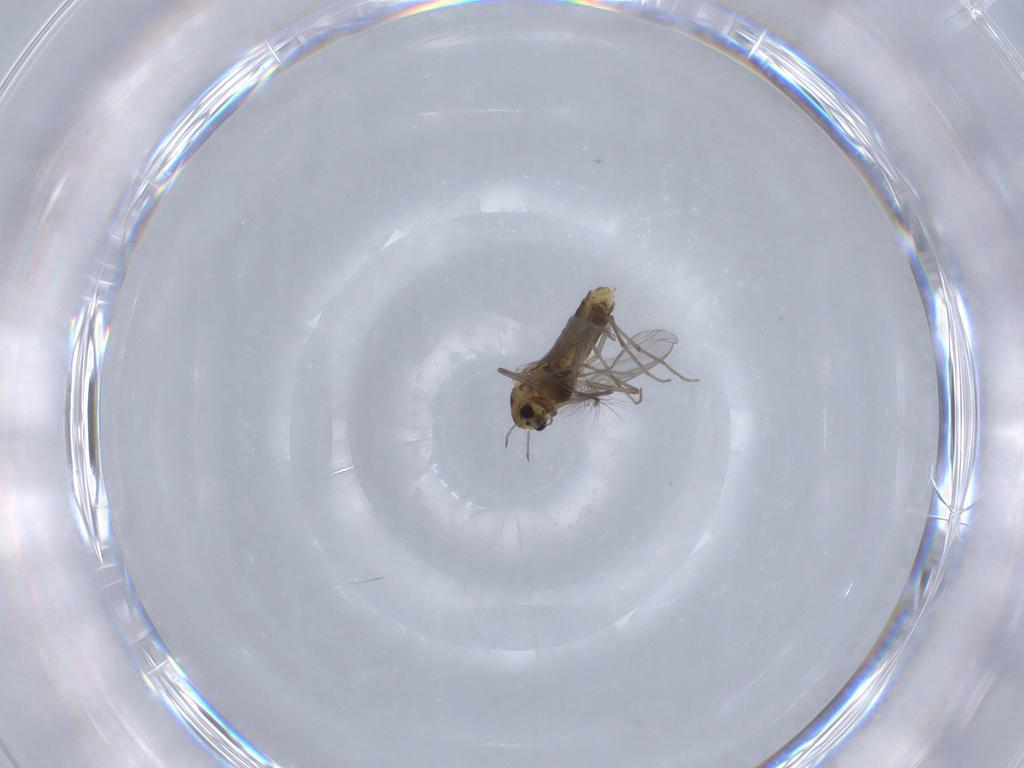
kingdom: Animalia
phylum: Arthropoda
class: Insecta
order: Diptera
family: Chironomidae
